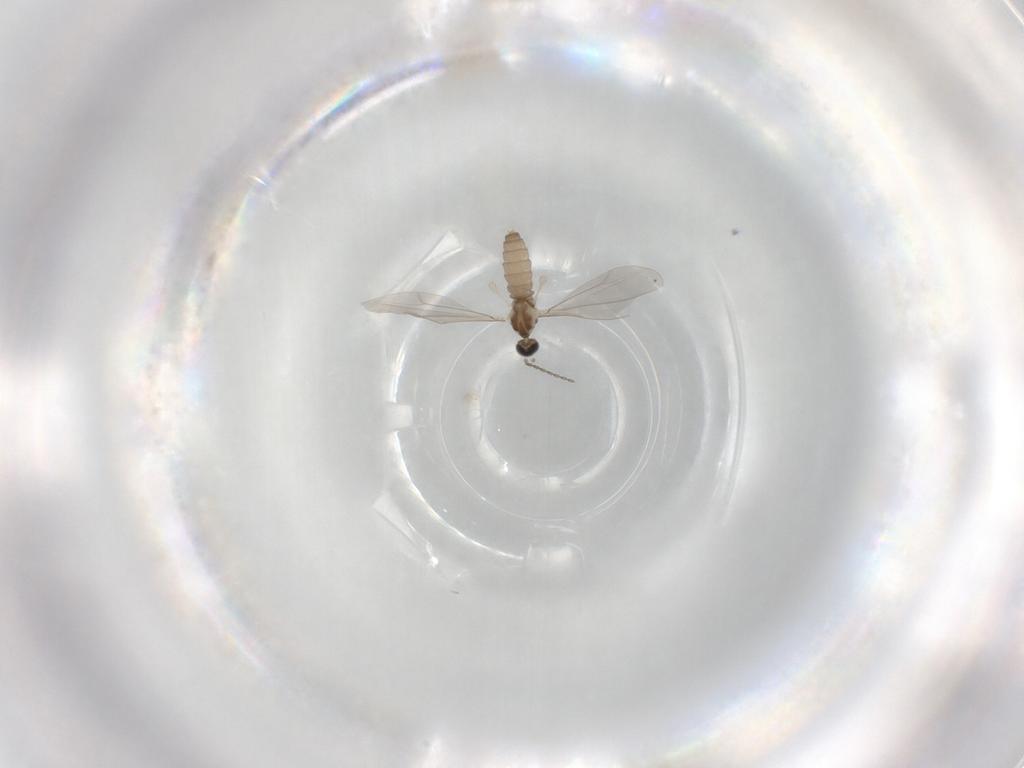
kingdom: Animalia
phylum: Arthropoda
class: Insecta
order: Diptera
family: Cecidomyiidae
